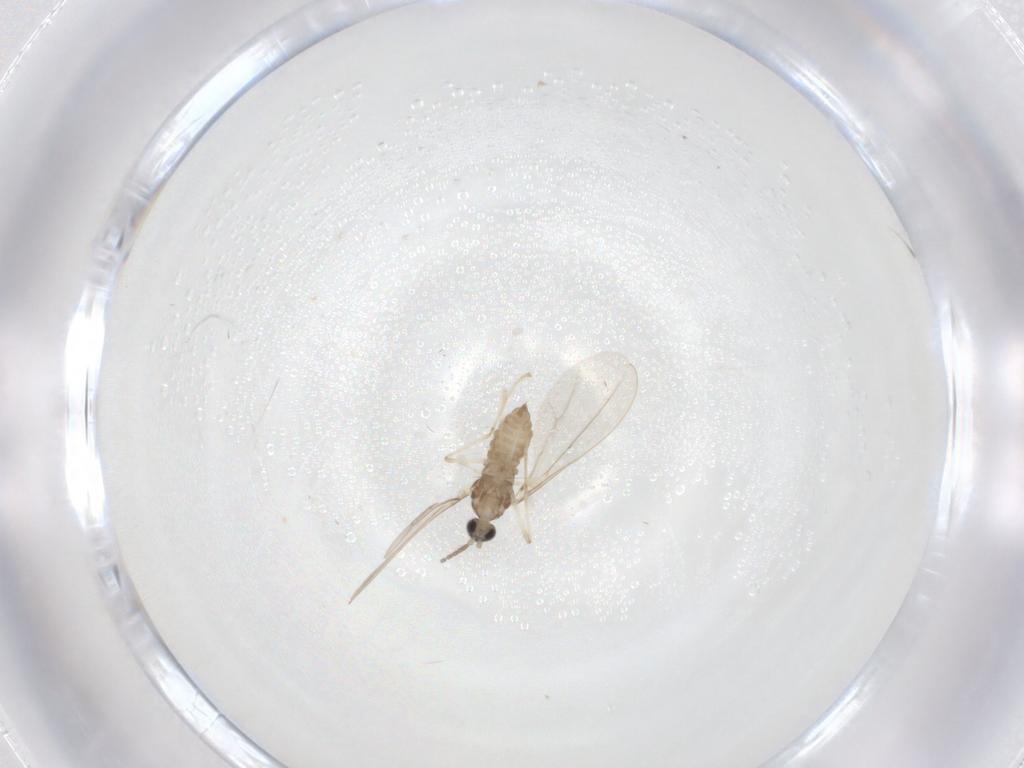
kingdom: Animalia
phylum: Arthropoda
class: Insecta
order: Diptera
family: Cecidomyiidae
